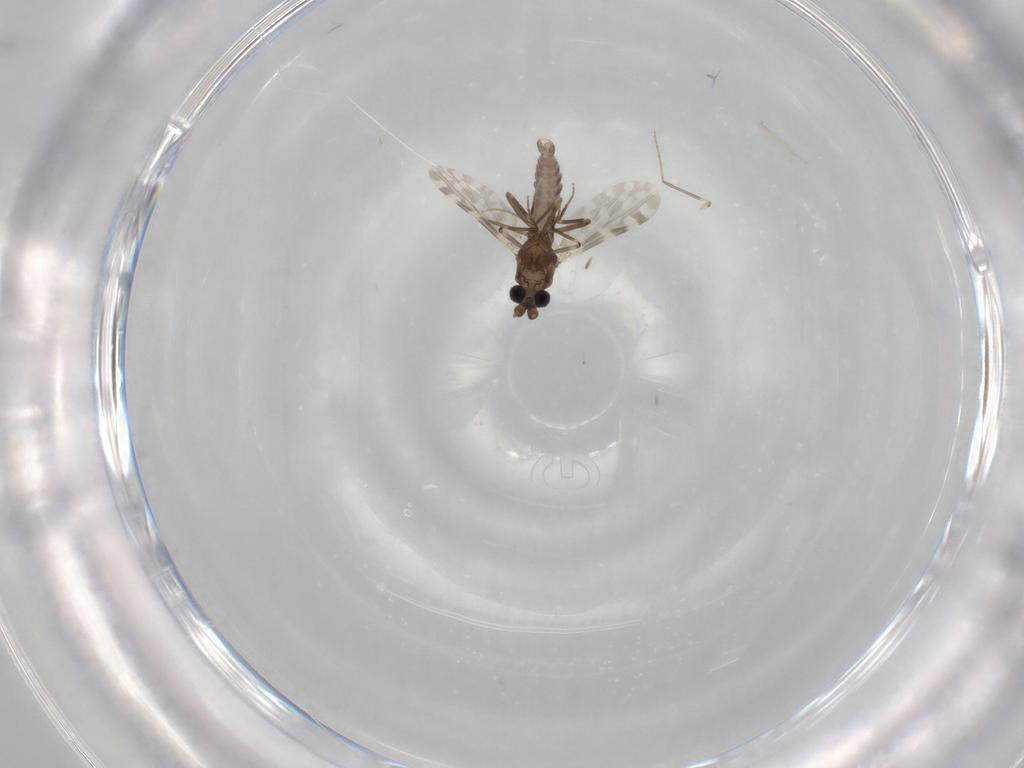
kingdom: Animalia
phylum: Arthropoda
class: Insecta
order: Diptera
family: Ceratopogonidae
